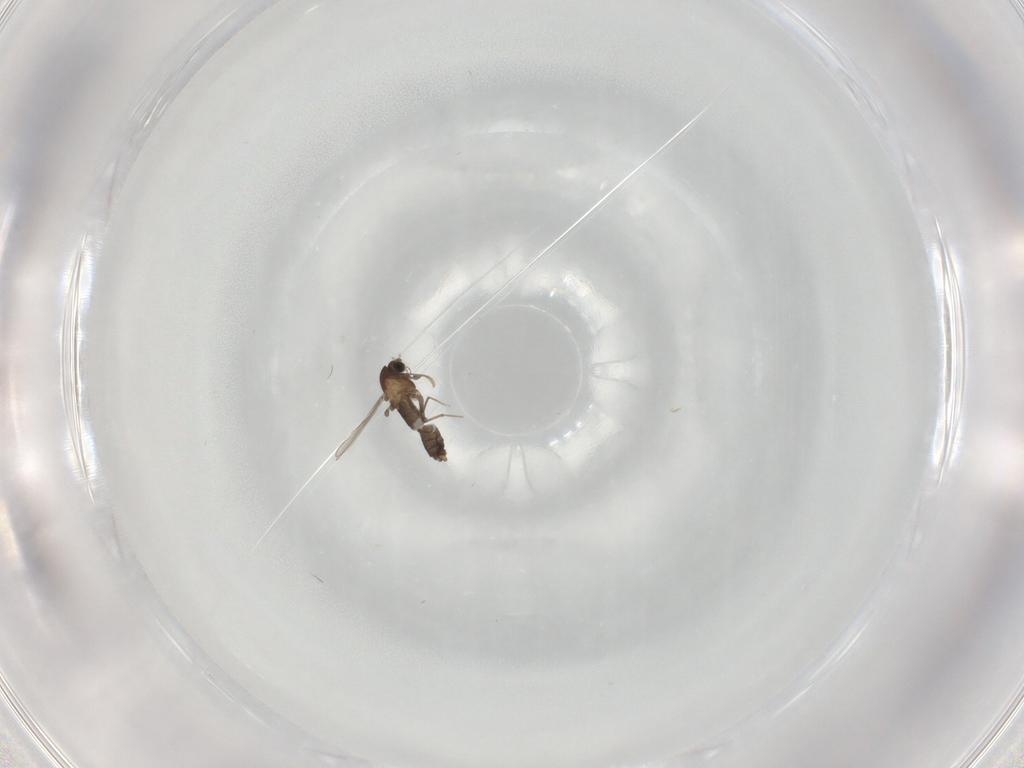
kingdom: Animalia
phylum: Arthropoda
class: Insecta
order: Diptera
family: Chironomidae
